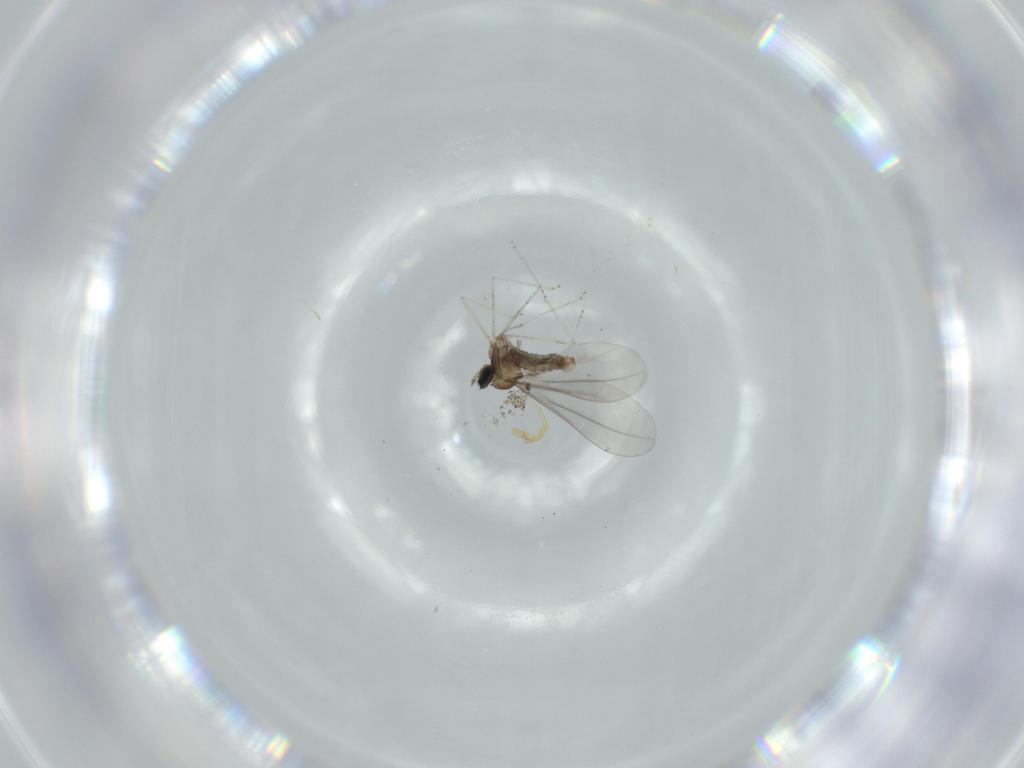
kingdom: Animalia
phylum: Arthropoda
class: Insecta
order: Diptera
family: Cecidomyiidae
